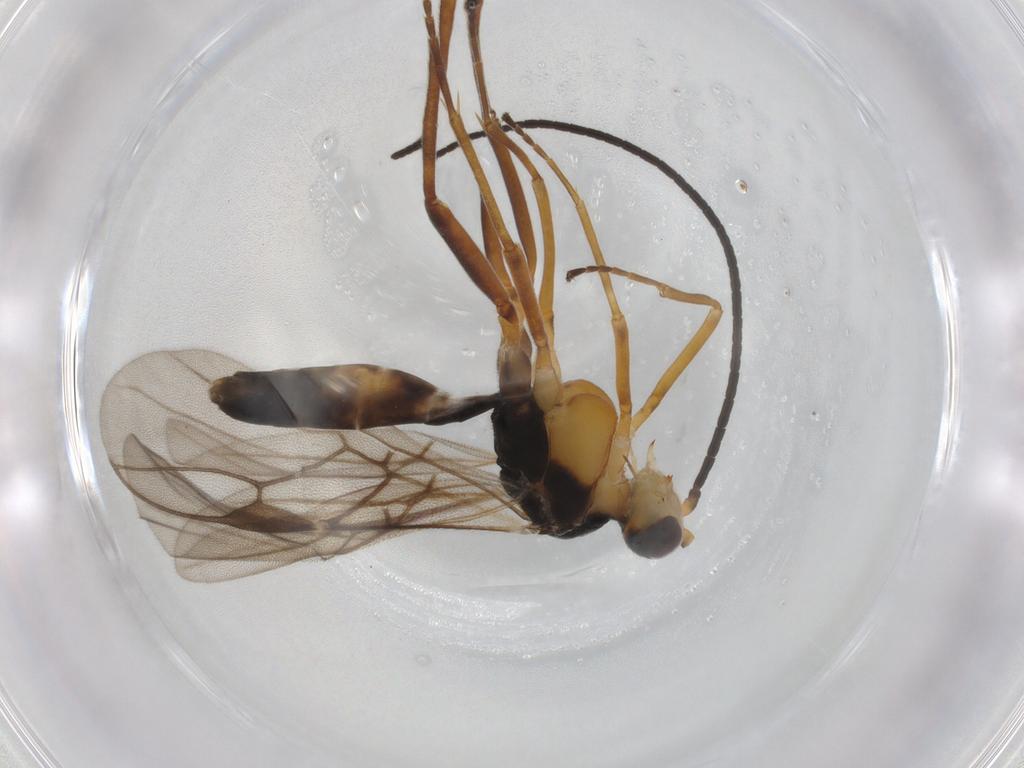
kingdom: Animalia
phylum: Arthropoda
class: Insecta
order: Hymenoptera
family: Braconidae
